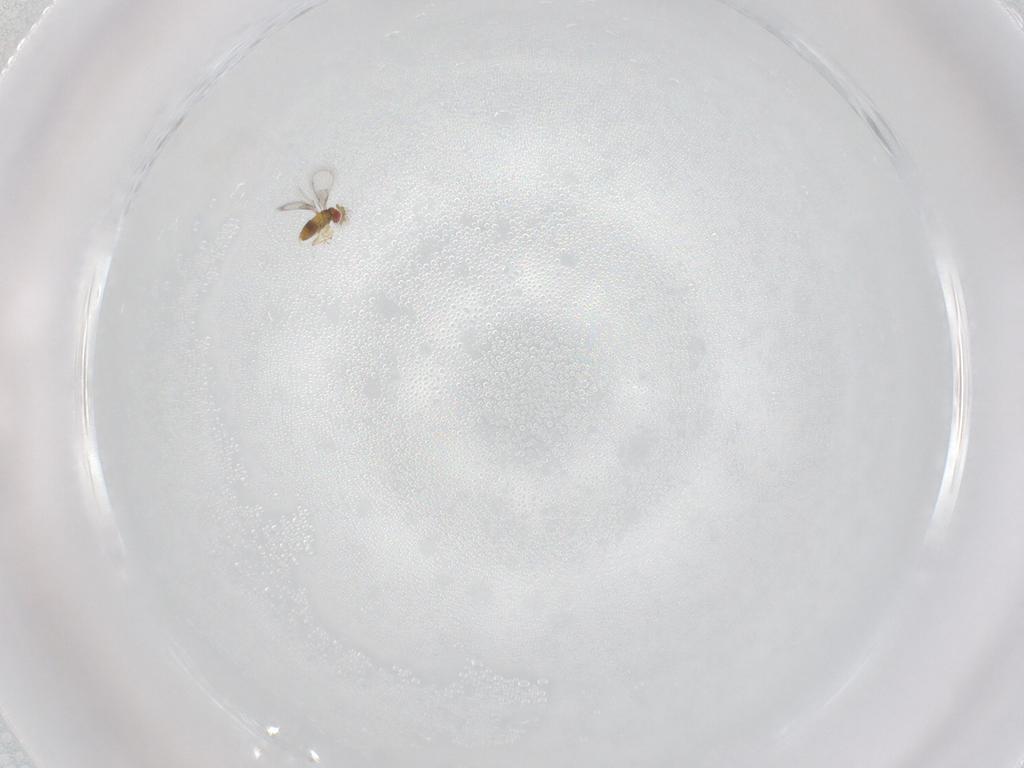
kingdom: Animalia
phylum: Arthropoda
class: Insecta
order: Hymenoptera
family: Trichogrammatidae
